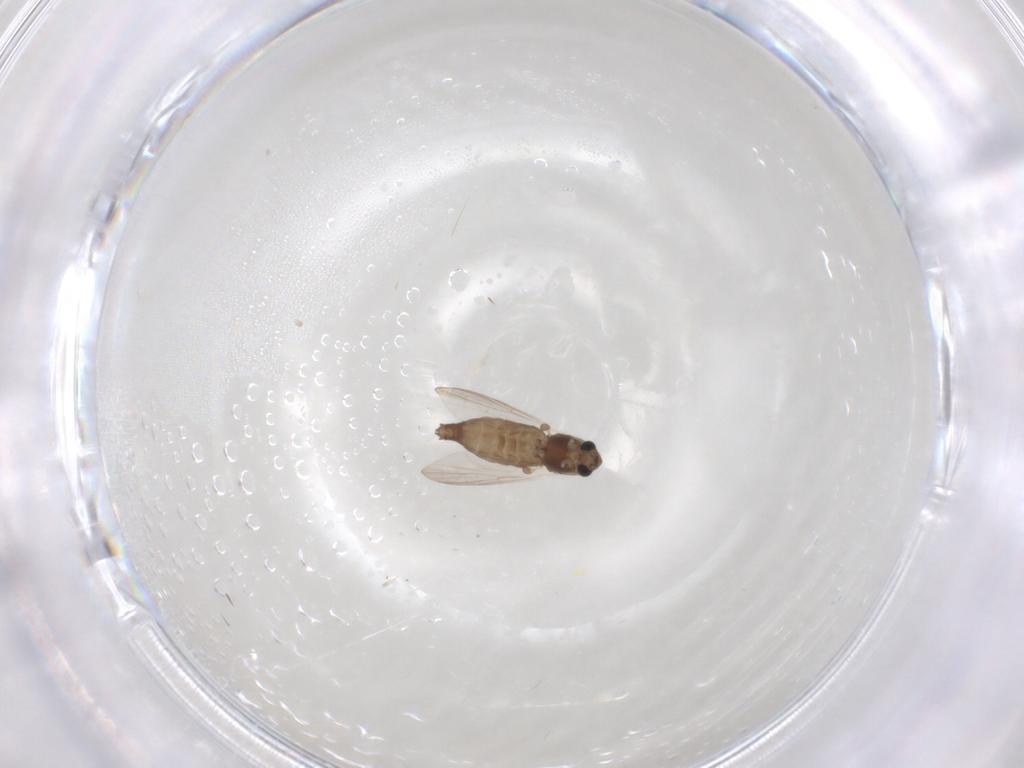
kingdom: Animalia
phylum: Arthropoda
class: Insecta
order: Diptera
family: Chironomidae
